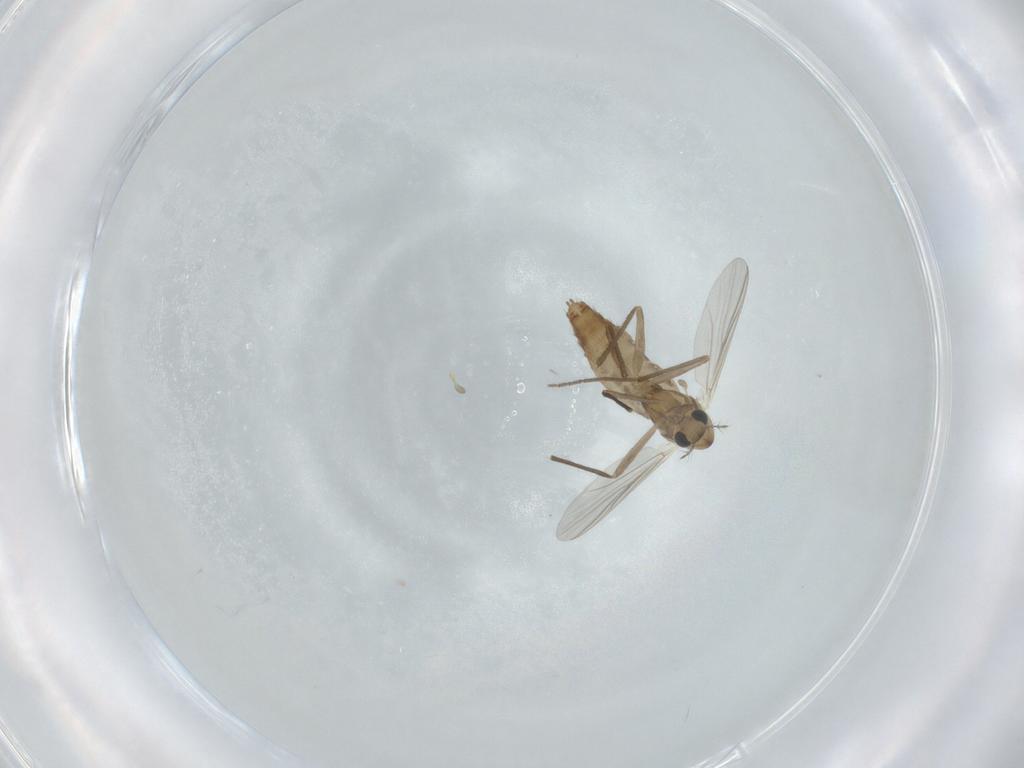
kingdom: Animalia
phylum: Arthropoda
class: Insecta
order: Diptera
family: Chironomidae
